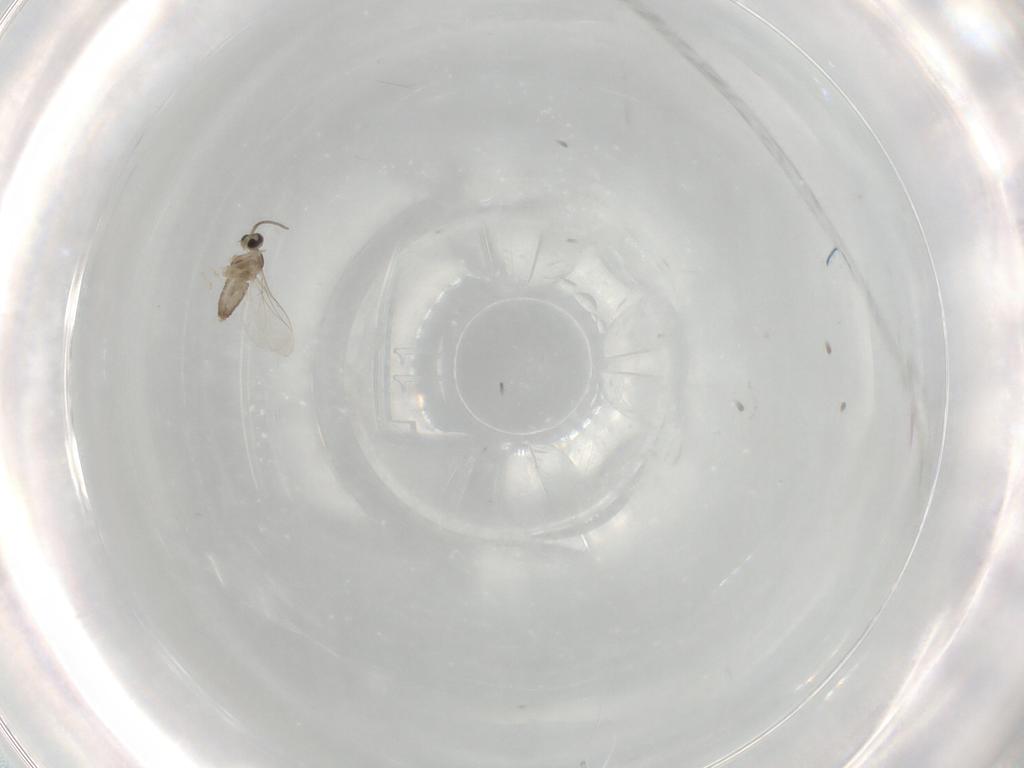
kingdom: Animalia
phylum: Arthropoda
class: Insecta
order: Diptera
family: Cecidomyiidae
